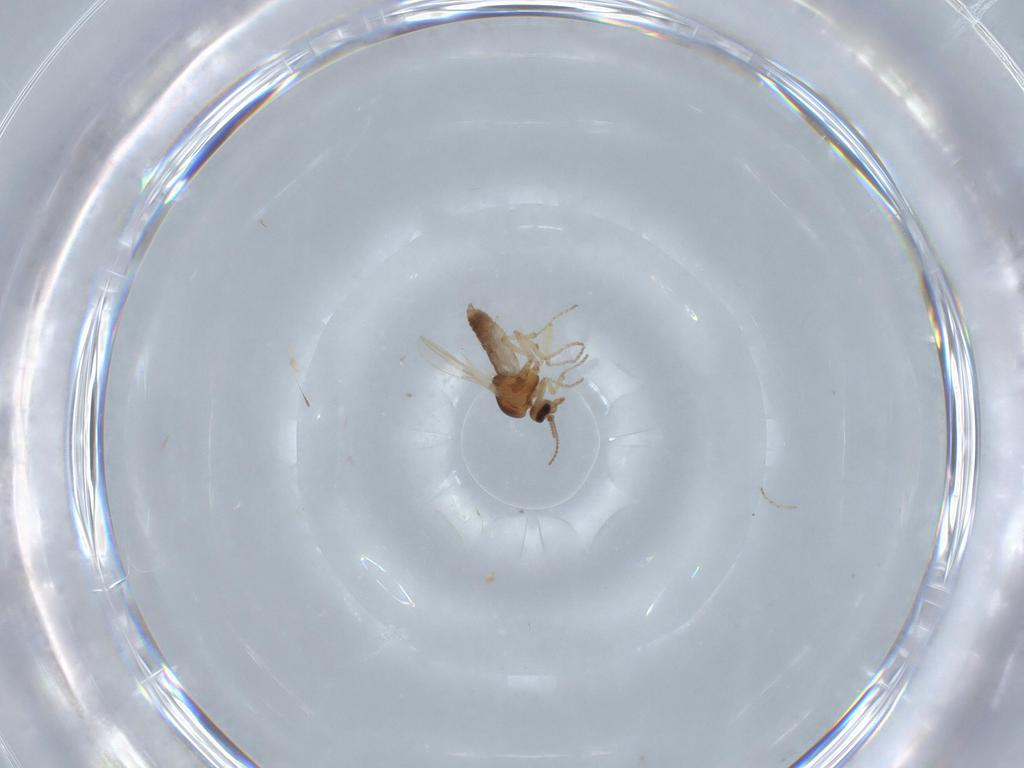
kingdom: Animalia
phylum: Arthropoda
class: Insecta
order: Diptera
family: Ceratopogonidae
